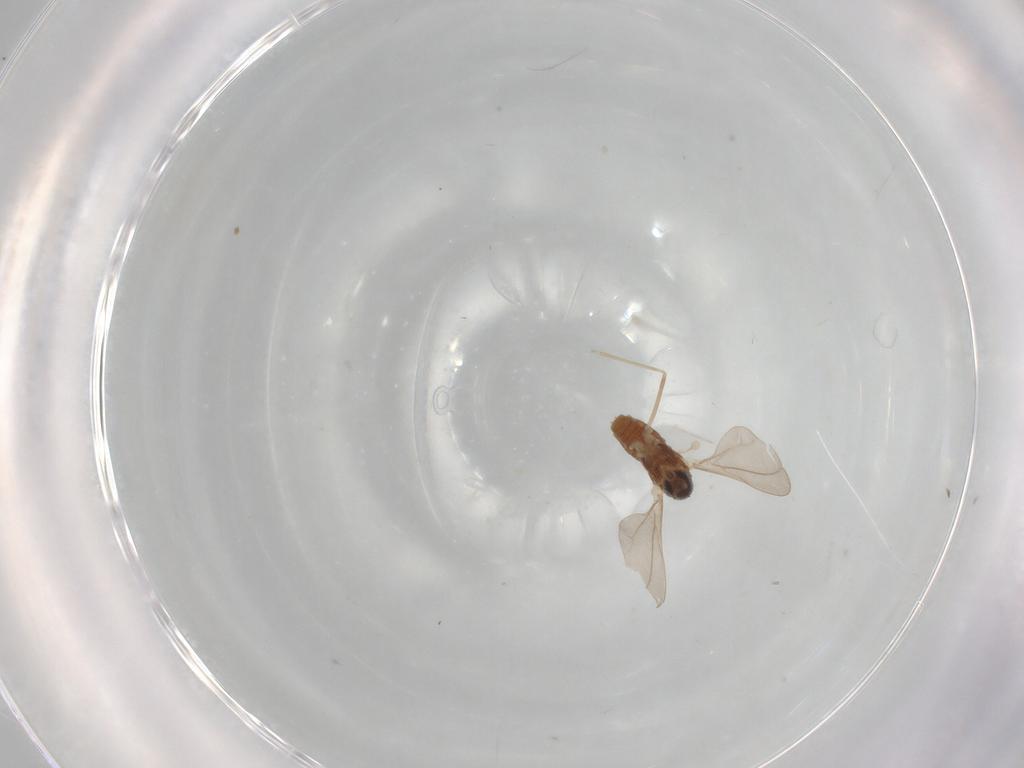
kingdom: Animalia
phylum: Arthropoda
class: Insecta
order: Diptera
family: Cecidomyiidae
